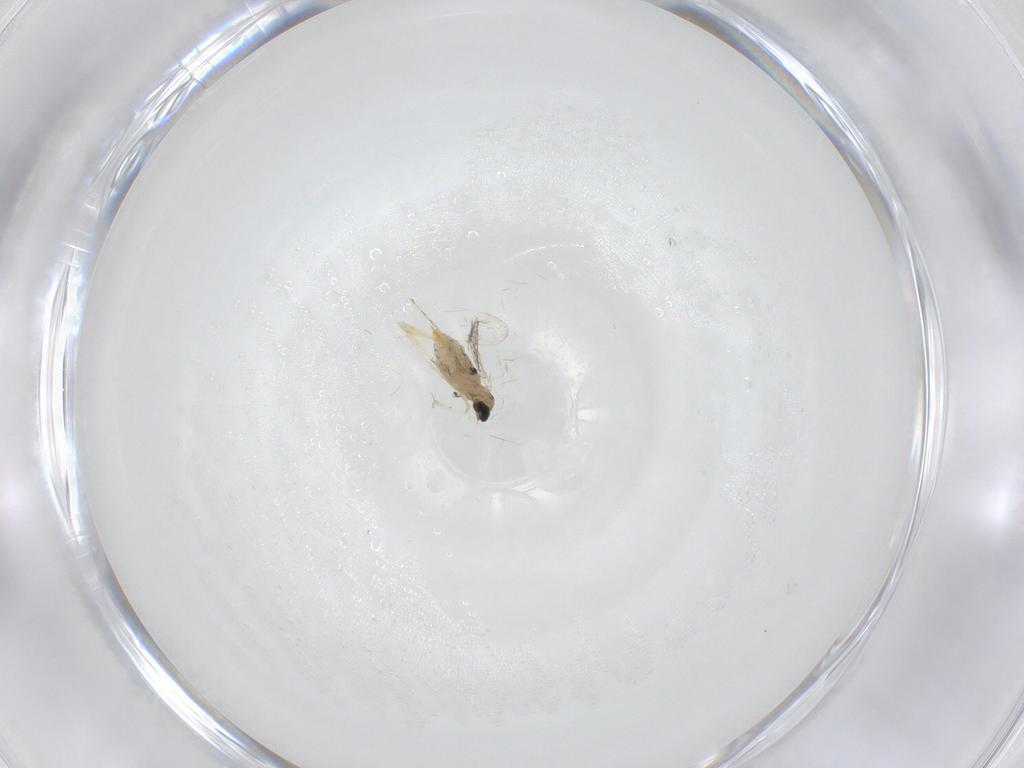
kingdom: Animalia
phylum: Arthropoda
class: Insecta
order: Diptera
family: Cecidomyiidae
